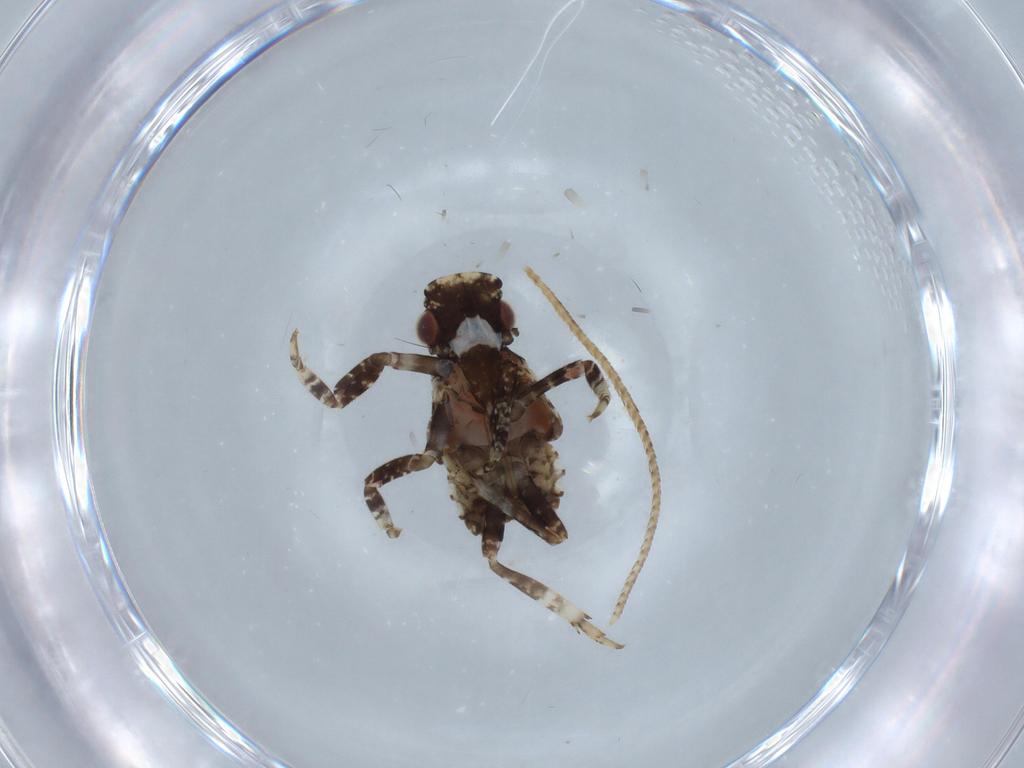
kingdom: Animalia
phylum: Arthropoda
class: Insecta
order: Hemiptera
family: Fulgoridae
